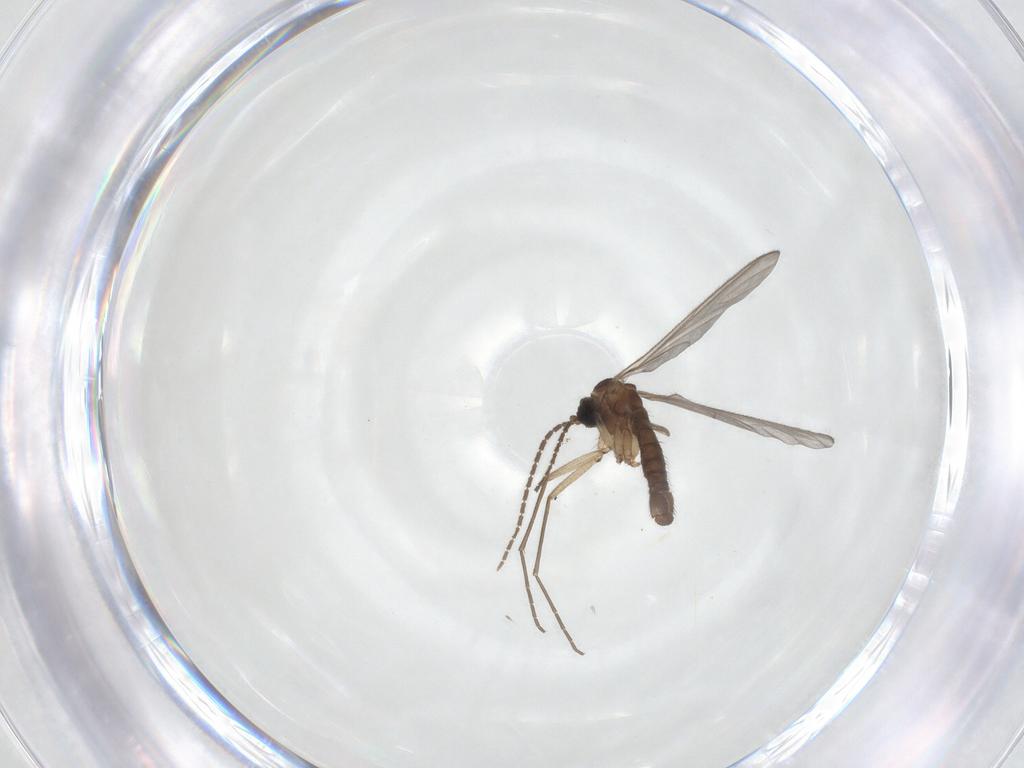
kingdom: Animalia
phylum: Arthropoda
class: Insecta
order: Diptera
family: Sciaridae
